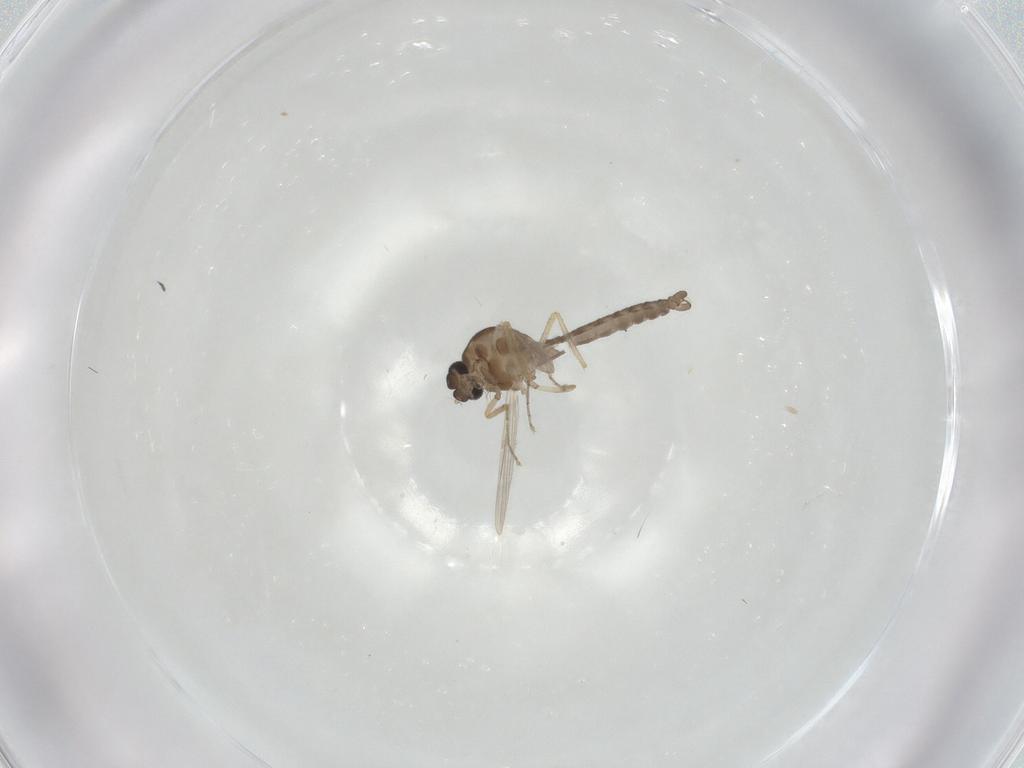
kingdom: Animalia
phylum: Arthropoda
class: Insecta
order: Diptera
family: Ceratopogonidae
